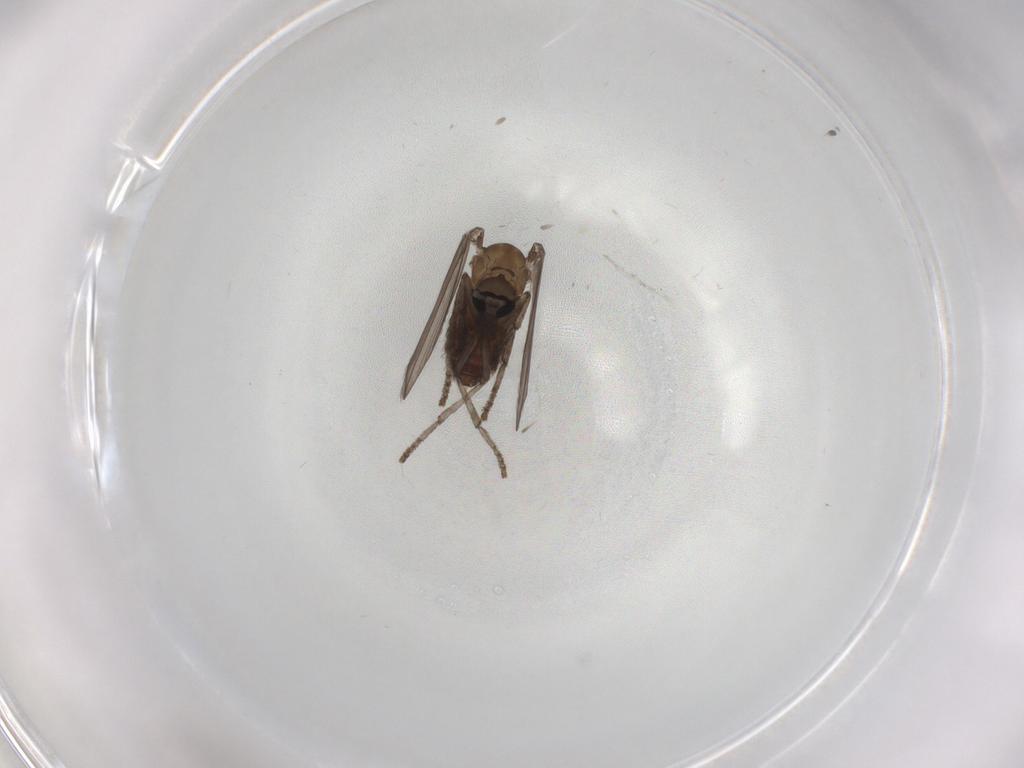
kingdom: Animalia
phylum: Arthropoda
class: Insecta
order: Diptera
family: Psychodidae
